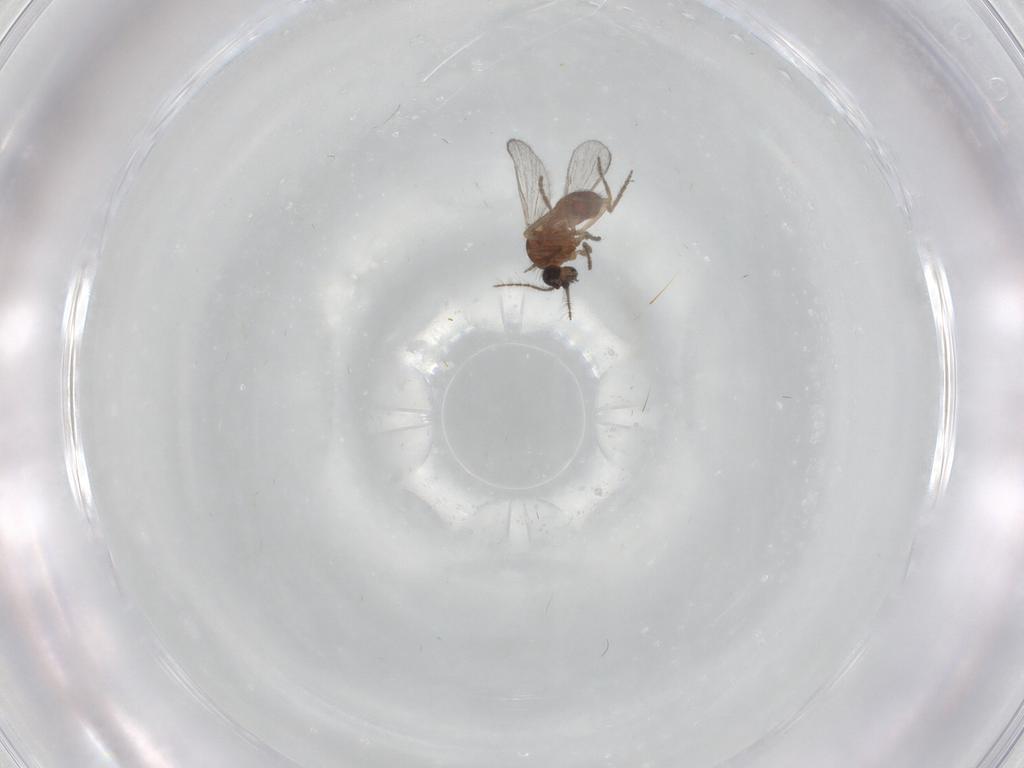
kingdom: Animalia
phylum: Arthropoda
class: Insecta
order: Diptera
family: Ceratopogonidae
